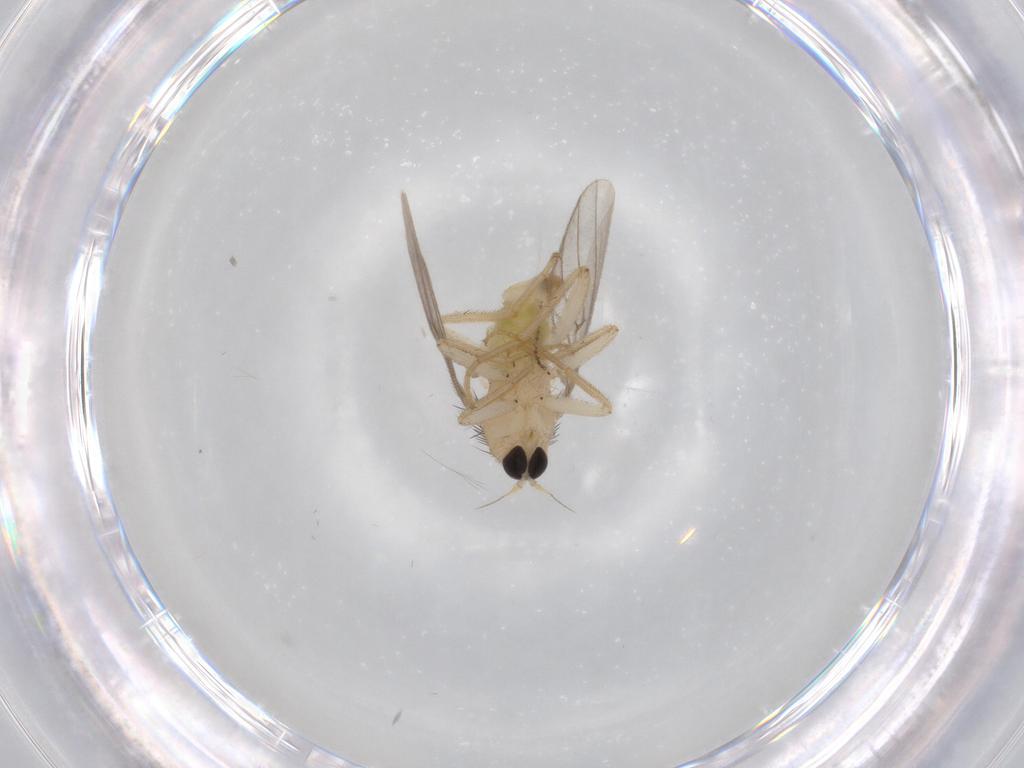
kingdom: Animalia
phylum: Arthropoda
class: Insecta
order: Diptera
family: Hybotidae
